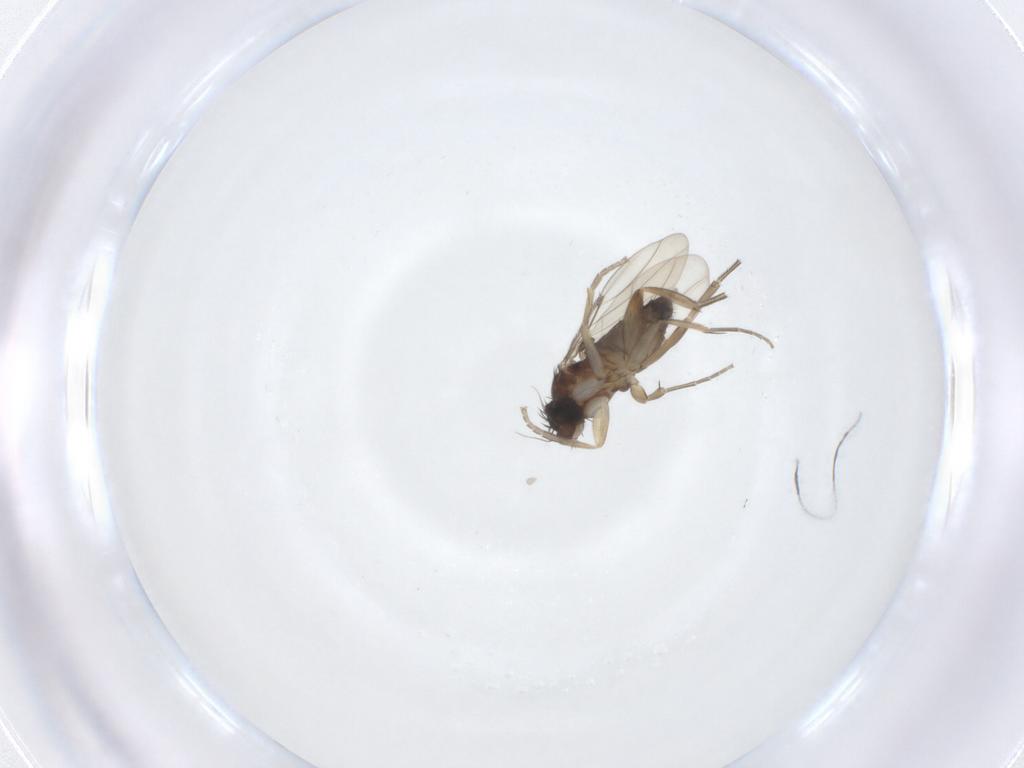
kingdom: Animalia
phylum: Arthropoda
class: Insecta
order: Diptera
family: Phoridae
